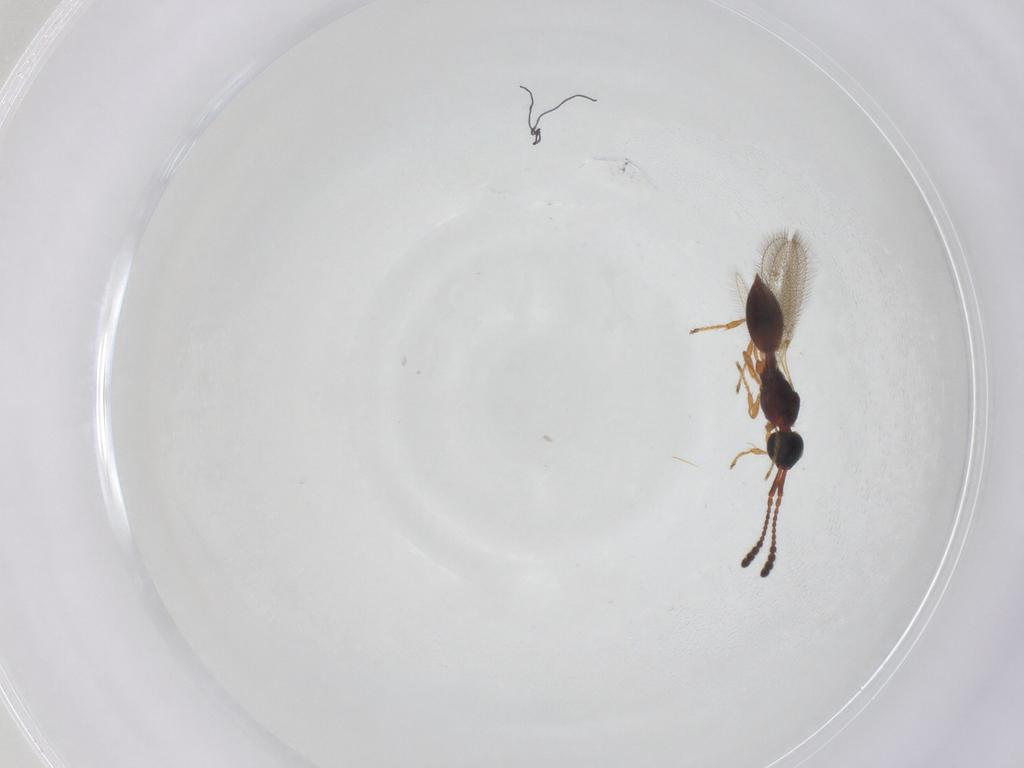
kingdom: Animalia
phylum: Arthropoda
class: Insecta
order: Hymenoptera
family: Diapriidae
